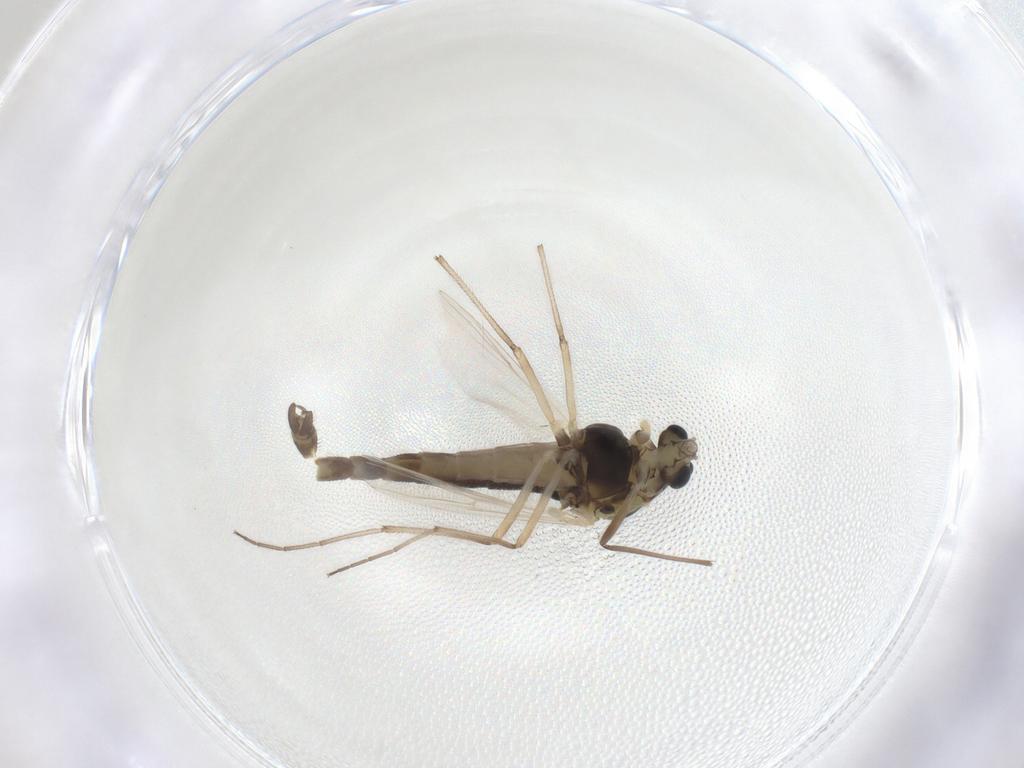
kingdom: Animalia
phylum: Arthropoda
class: Insecta
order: Diptera
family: Chironomidae
